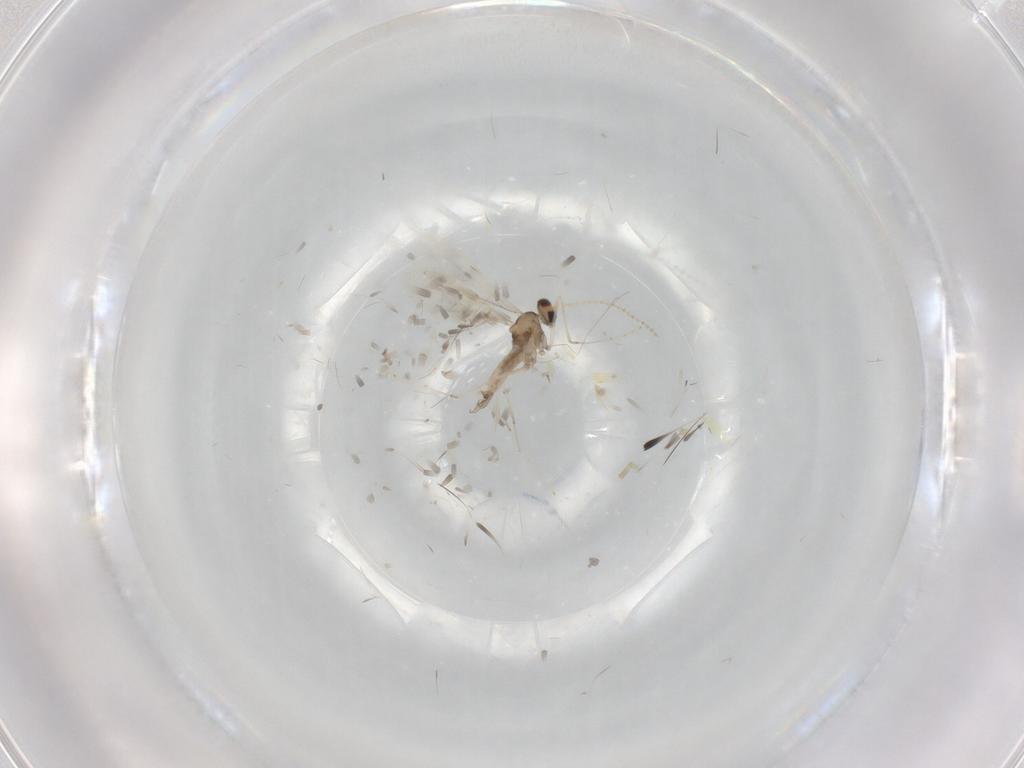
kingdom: Animalia
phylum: Arthropoda
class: Insecta
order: Diptera
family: Cecidomyiidae
